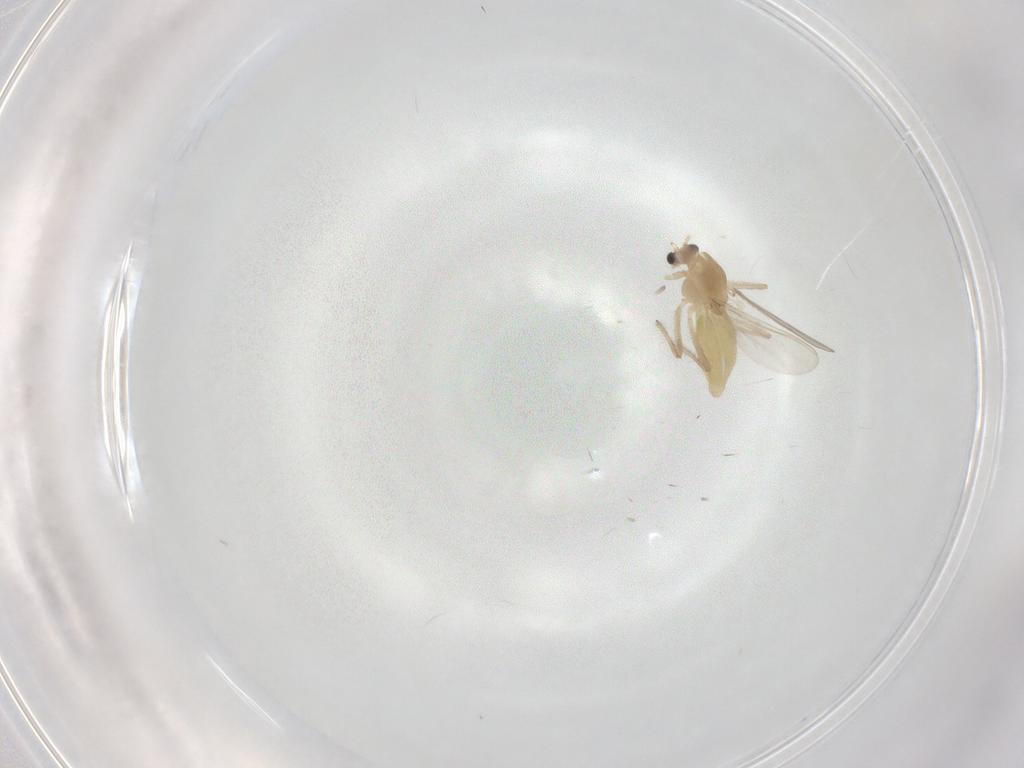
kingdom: Animalia
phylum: Arthropoda
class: Insecta
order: Diptera
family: Chironomidae
